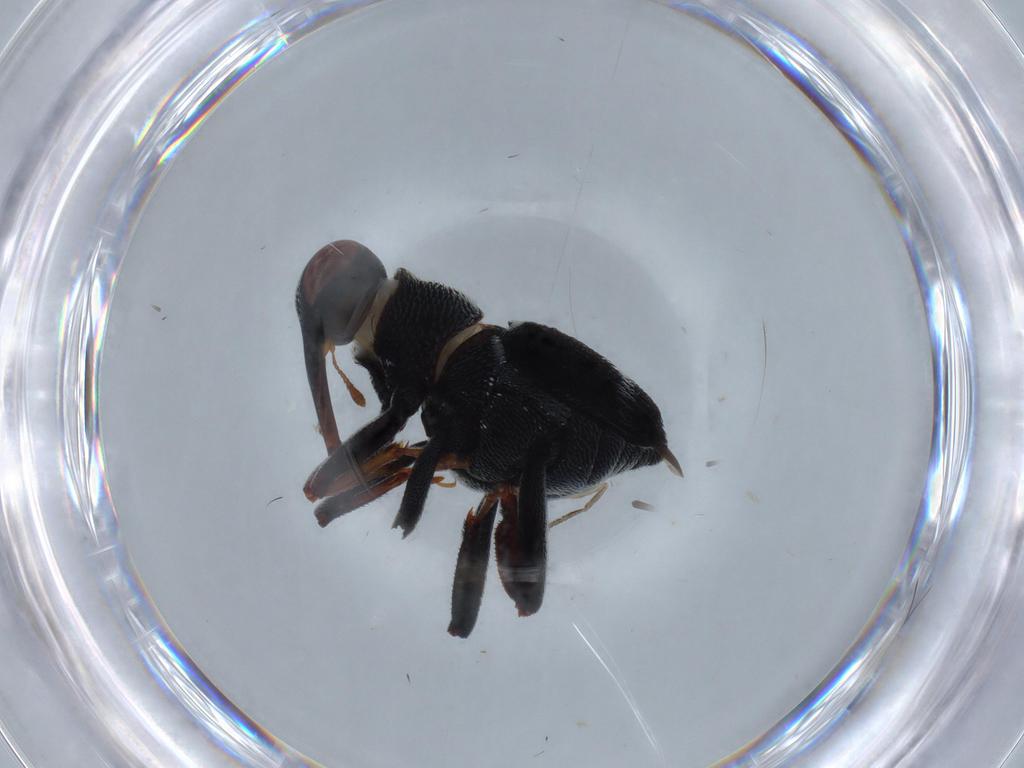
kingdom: Animalia
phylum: Arthropoda
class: Insecta
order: Coleoptera
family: Curculionidae
